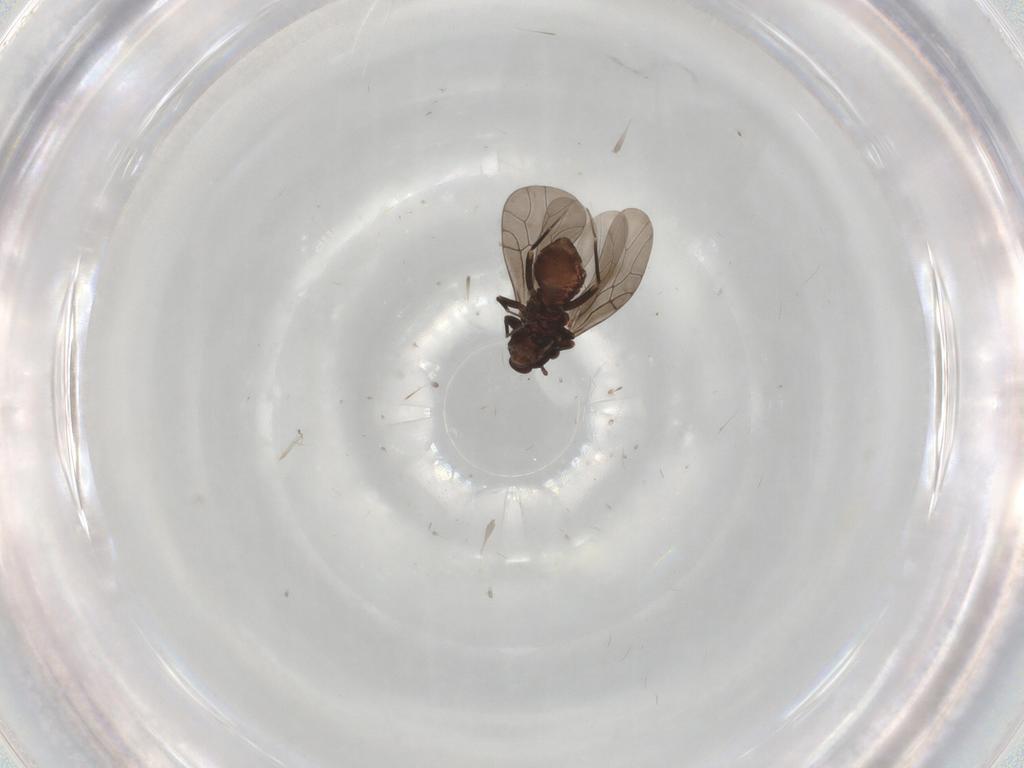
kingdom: Animalia
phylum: Arthropoda
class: Insecta
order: Psocodea
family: Lepidopsocidae
